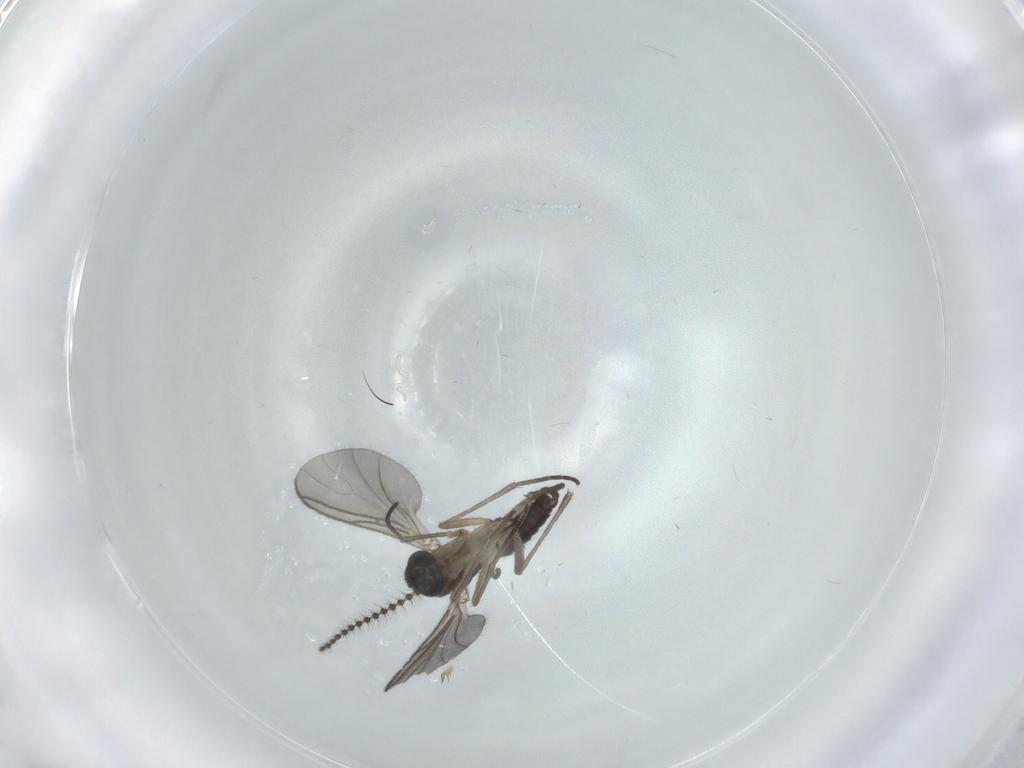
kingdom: Animalia
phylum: Arthropoda
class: Insecta
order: Diptera
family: Sciaridae
